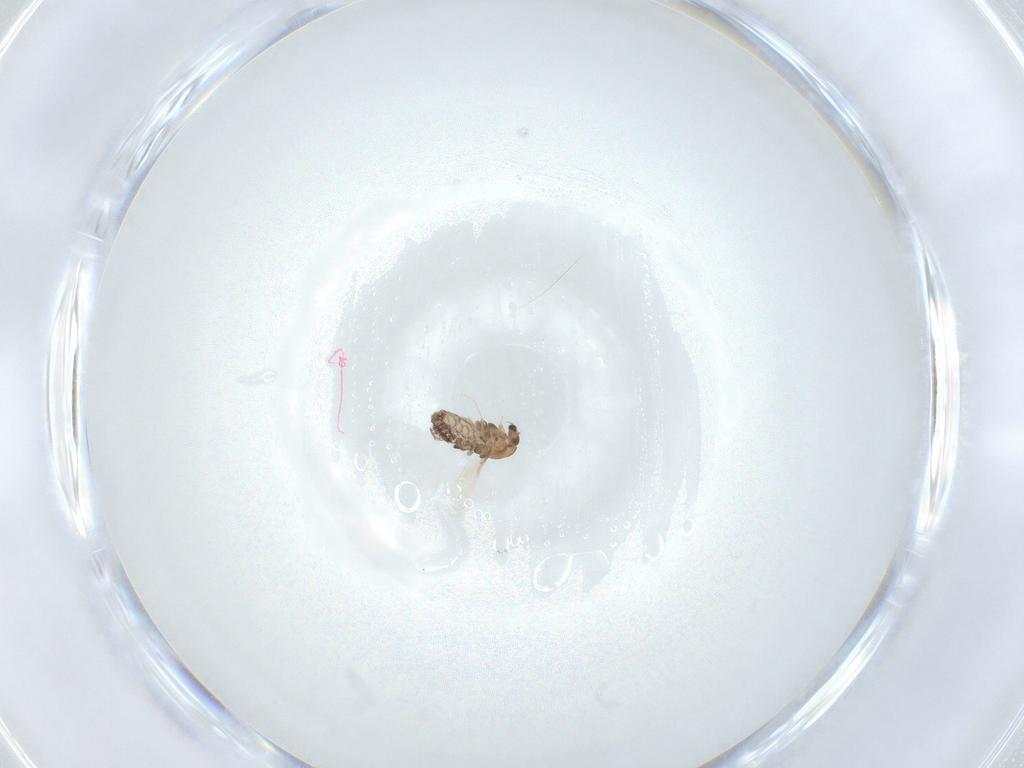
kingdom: Animalia
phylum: Arthropoda
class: Insecta
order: Diptera
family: Chironomidae
